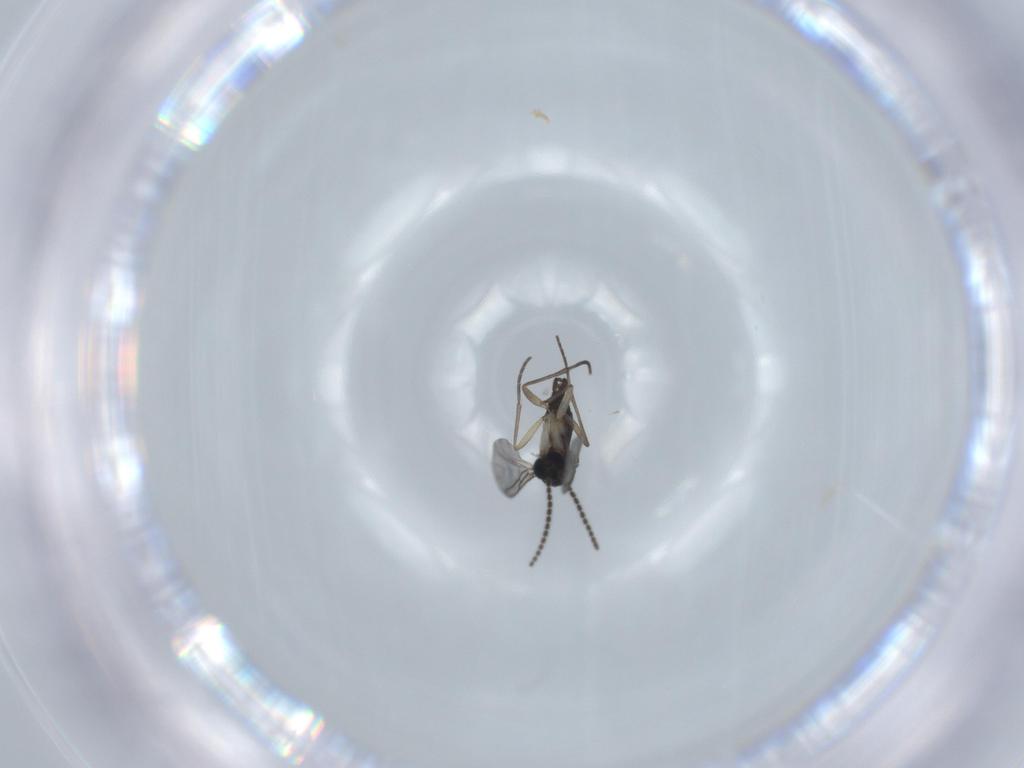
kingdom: Animalia
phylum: Arthropoda
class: Insecta
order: Diptera
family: Sciaridae
